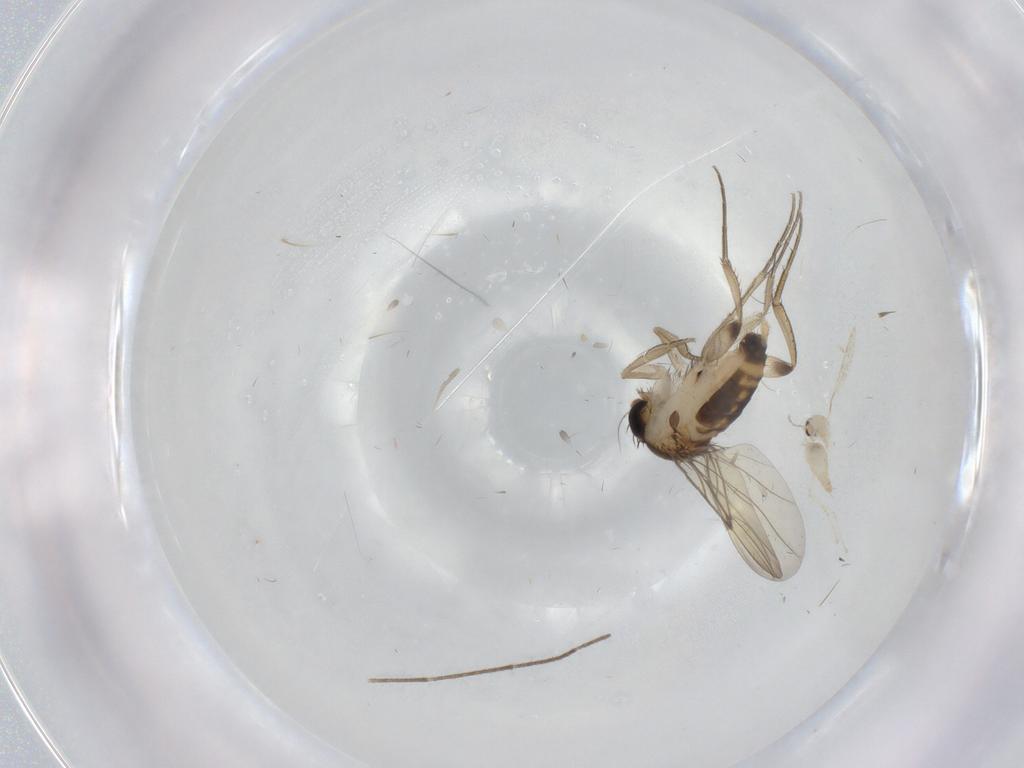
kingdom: Animalia
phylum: Arthropoda
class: Insecta
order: Diptera
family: Phoridae
